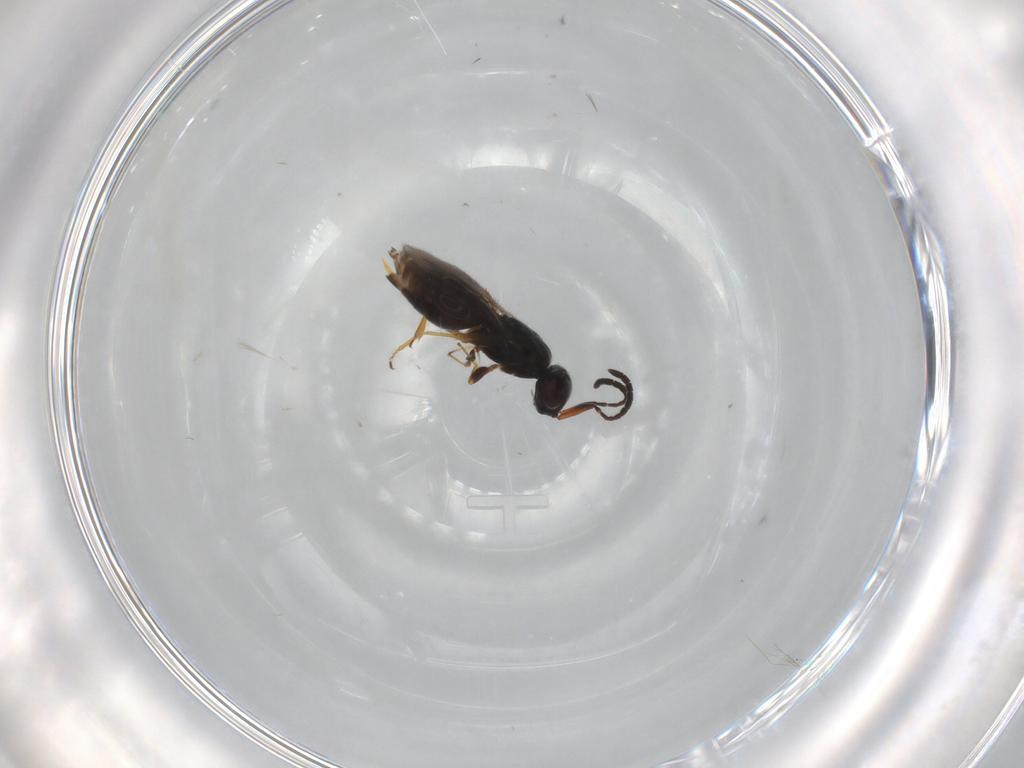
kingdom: Animalia
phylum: Arthropoda
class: Insecta
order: Hymenoptera
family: Megaspilidae
